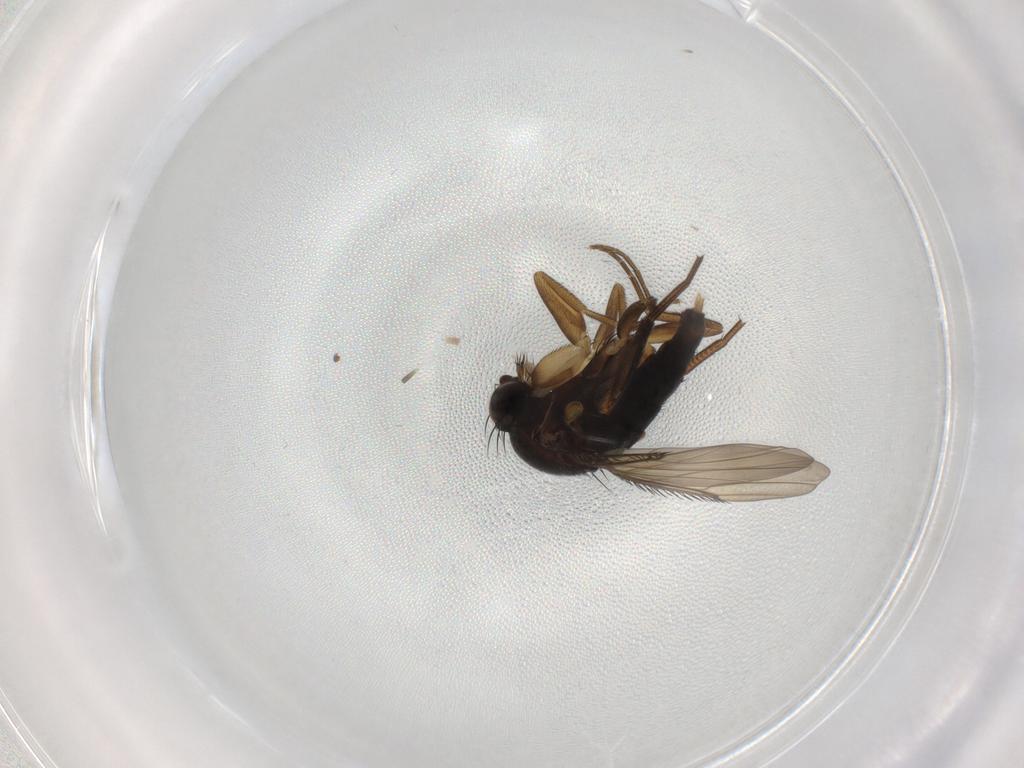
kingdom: Animalia
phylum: Arthropoda
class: Insecta
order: Diptera
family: Phoridae
